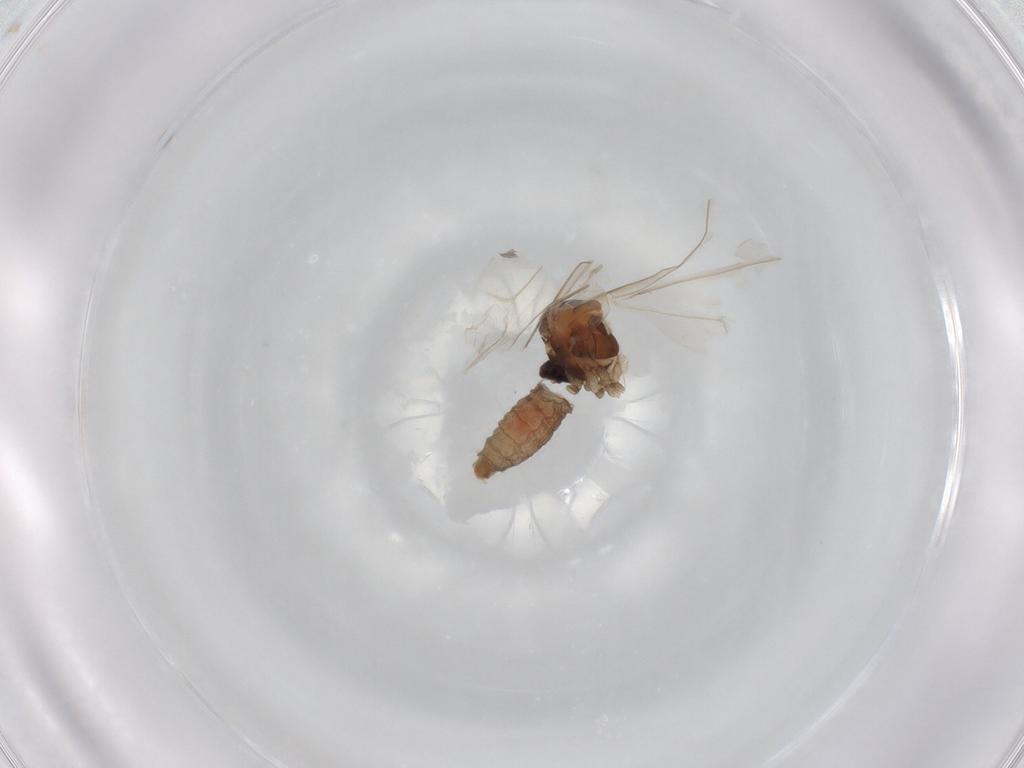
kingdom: Animalia
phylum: Arthropoda
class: Insecta
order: Diptera
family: Cecidomyiidae
